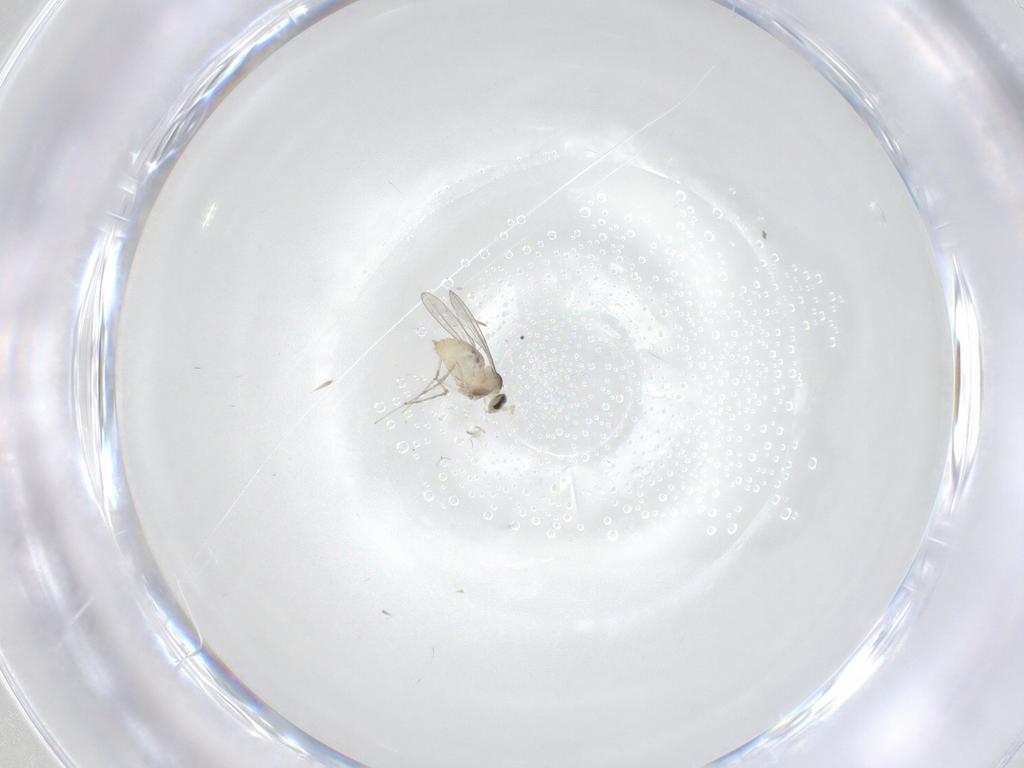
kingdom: Animalia
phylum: Arthropoda
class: Insecta
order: Diptera
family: Cecidomyiidae
